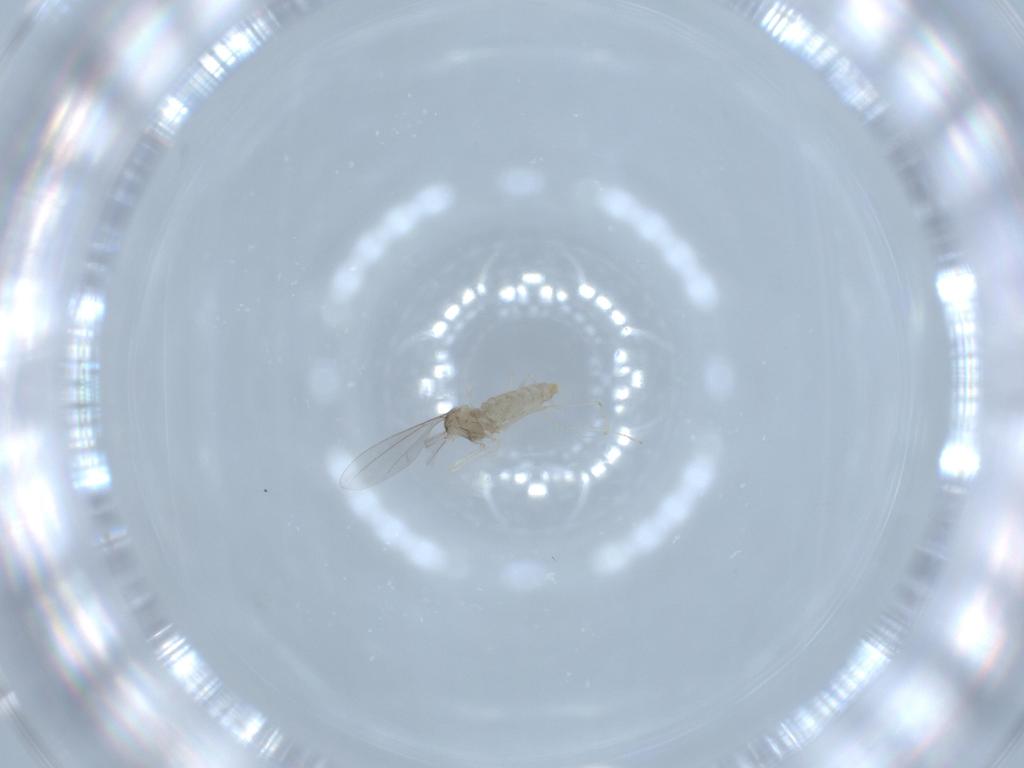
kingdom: Animalia
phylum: Arthropoda
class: Insecta
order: Diptera
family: Cecidomyiidae
